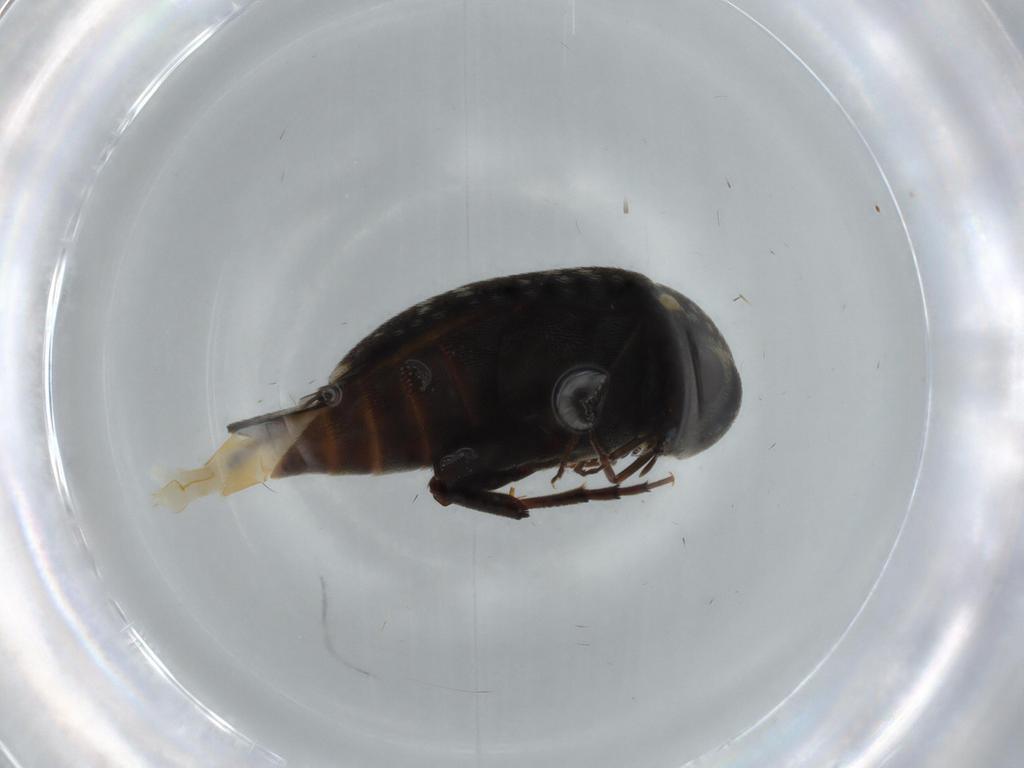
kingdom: Animalia
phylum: Arthropoda
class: Insecta
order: Coleoptera
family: Mordellidae
